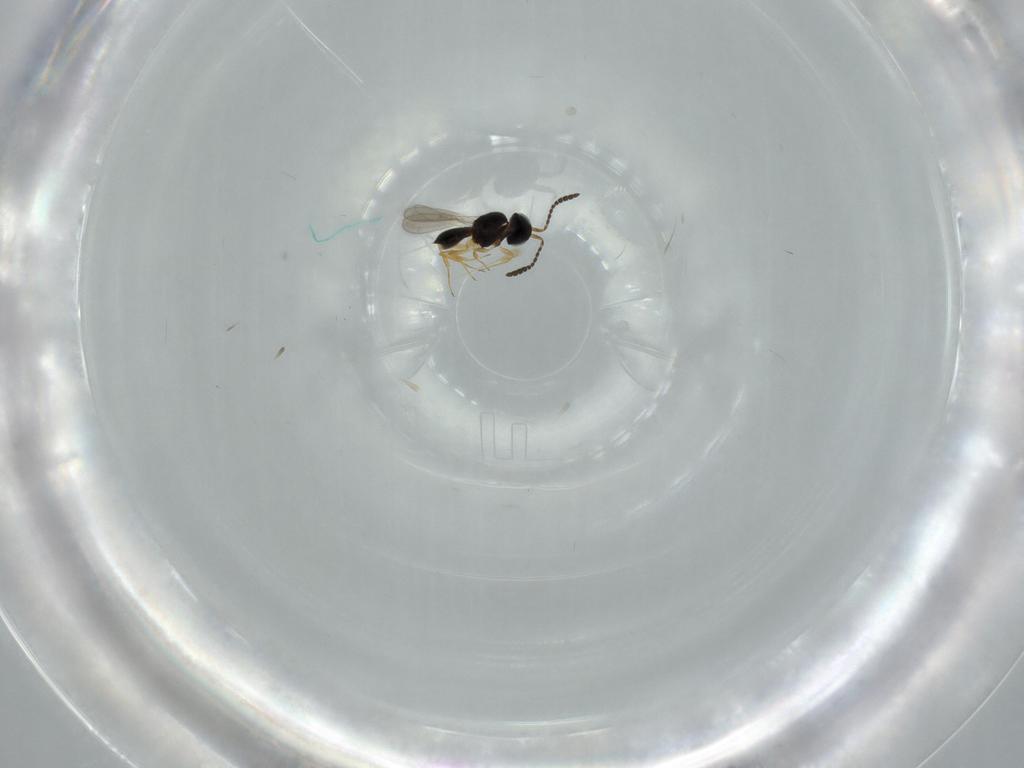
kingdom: Animalia
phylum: Arthropoda
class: Insecta
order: Hymenoptera
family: Scelionidae
